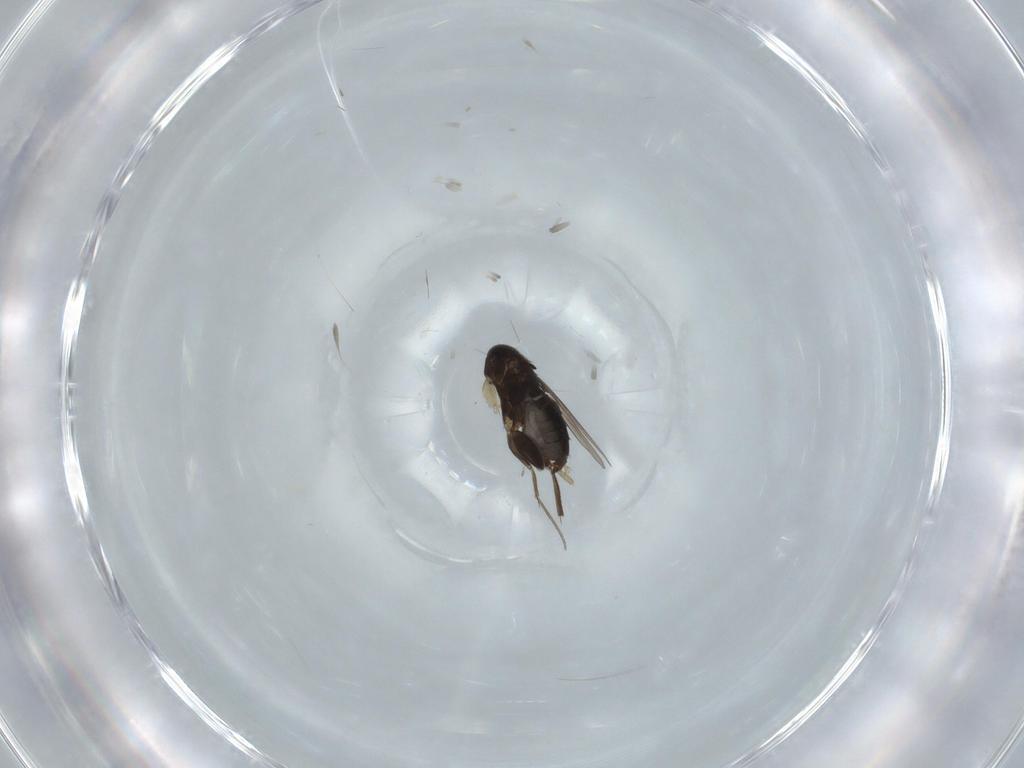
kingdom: Animalia
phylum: Arthropoda
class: Insecta
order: Diptera
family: Phoridae
